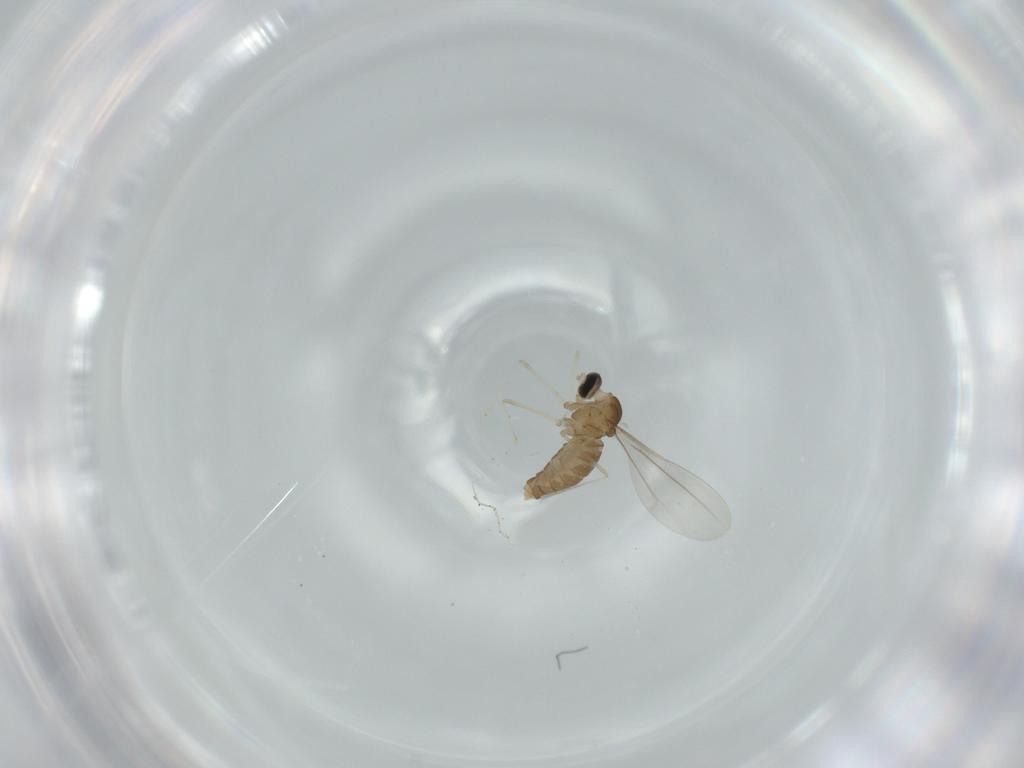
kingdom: Animalia
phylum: Arthropoda
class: Insecta
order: Diptera
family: Cecidomyiidae
